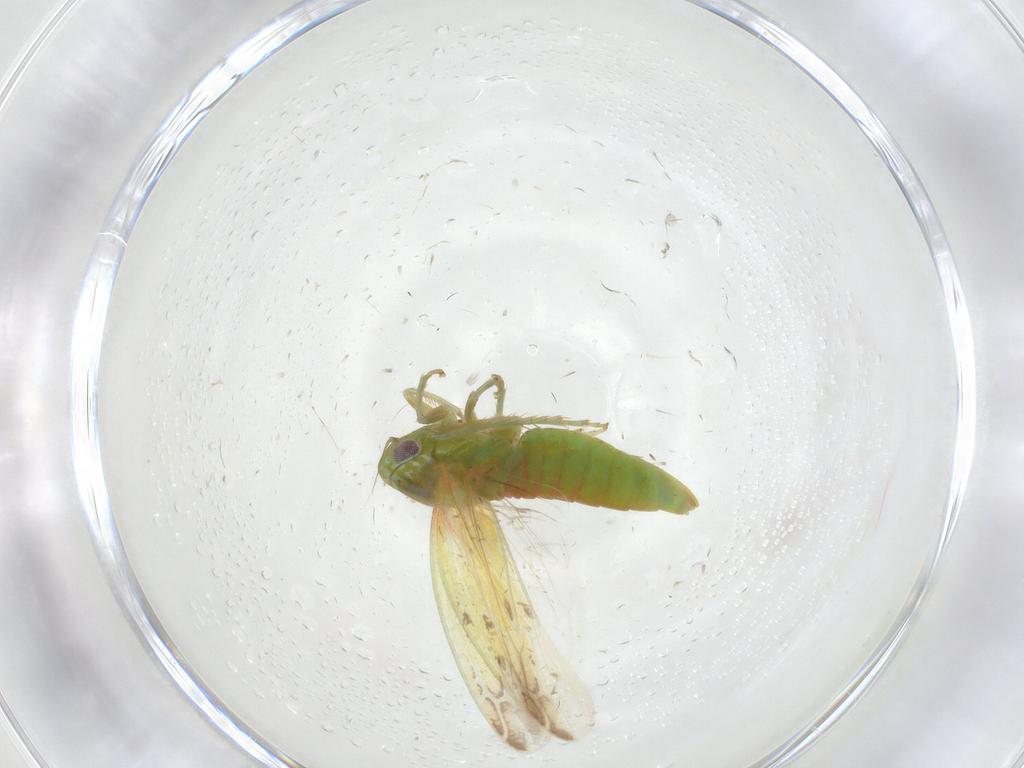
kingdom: Animalia
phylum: Arthropoda
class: Insecta
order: Hemiptera
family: Cicadellidae
